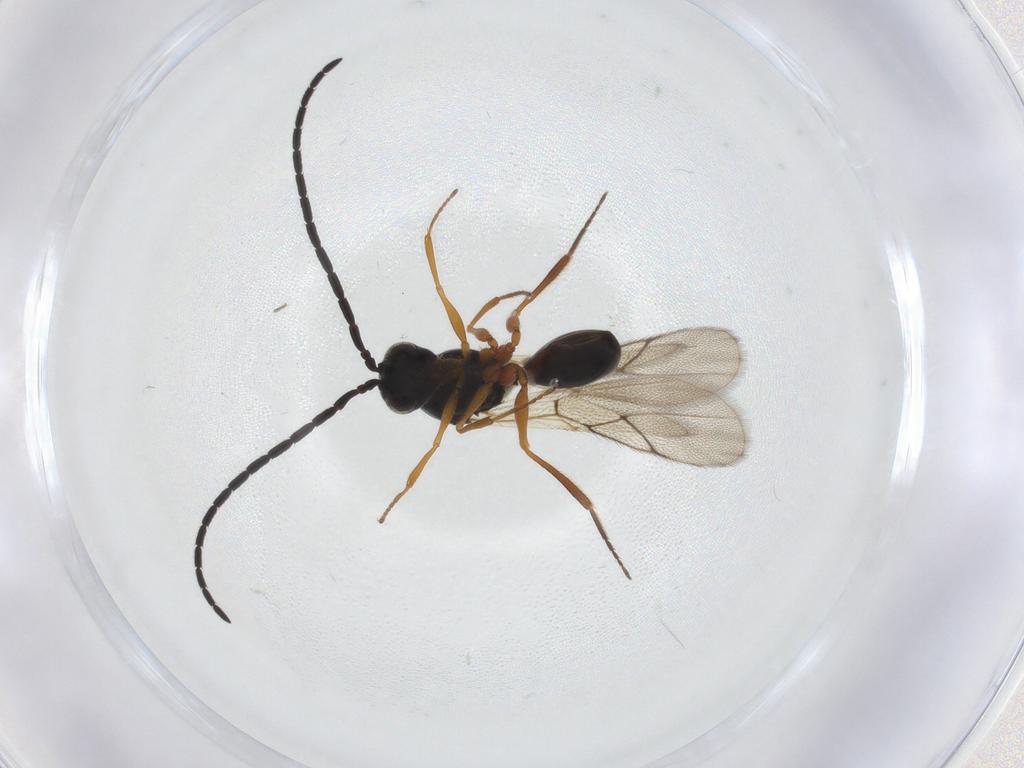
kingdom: Animalia
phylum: Arthropoda
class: Insecta
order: Hymenoptera
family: Figitidae
